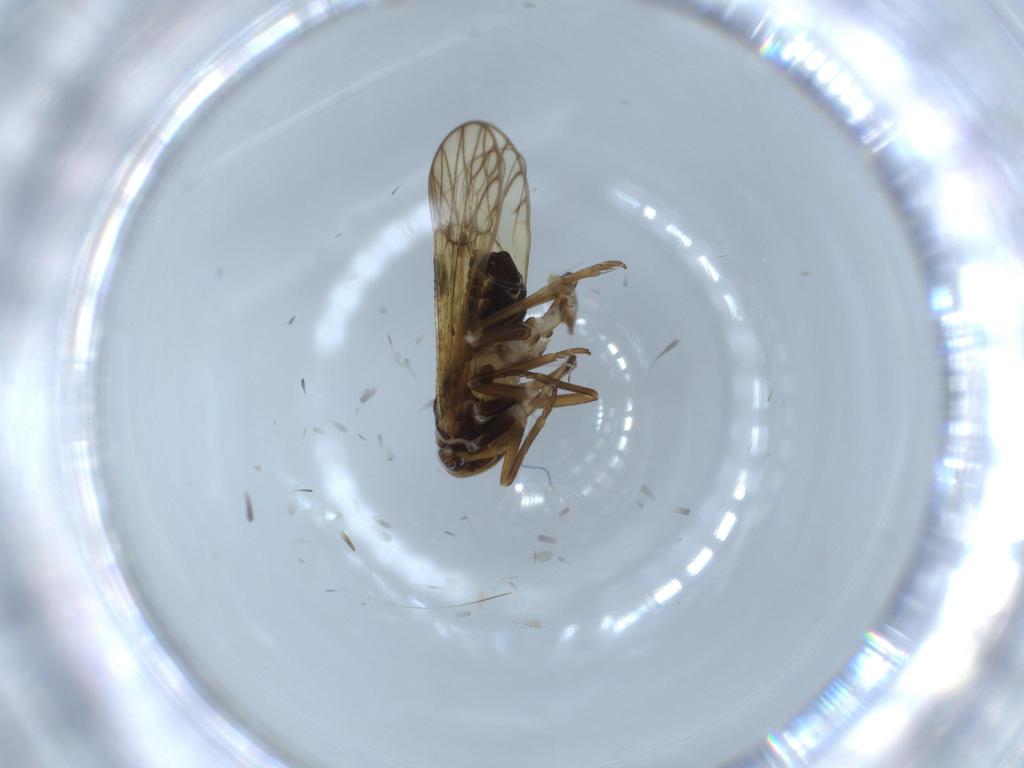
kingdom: Animalia
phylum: Arthropoda
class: Insecta
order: Hemiptera
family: Delphacidae
